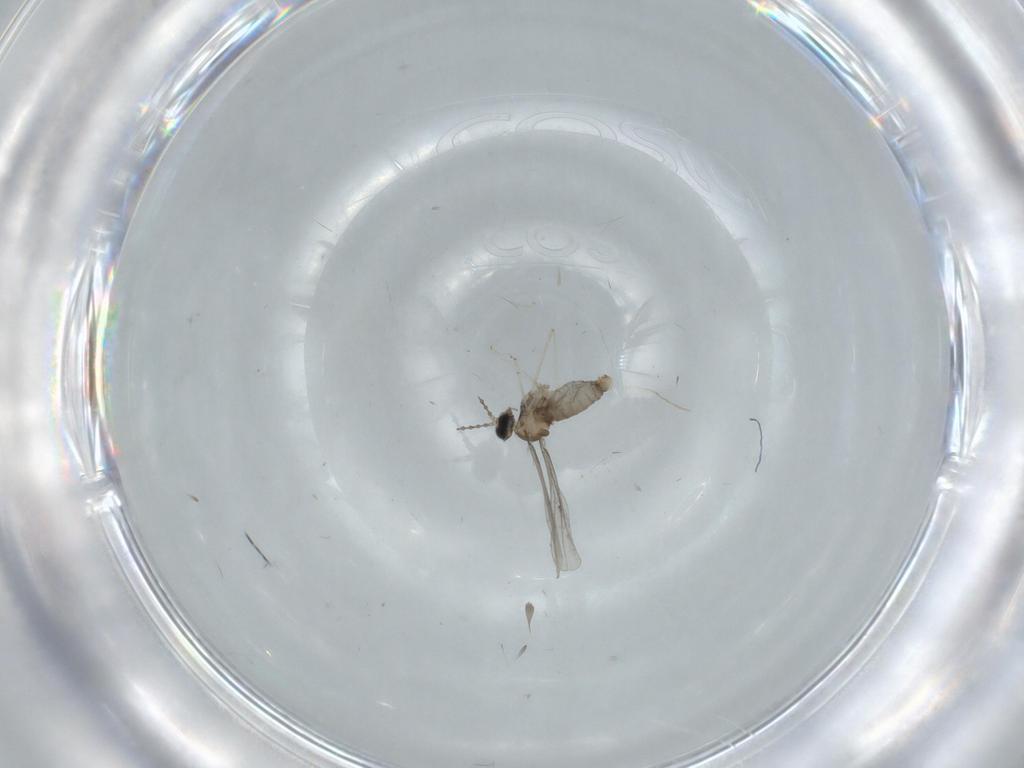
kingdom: Animalia
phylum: Arthropoda
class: Insecta
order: Diptera
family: Cecidomyiidae
